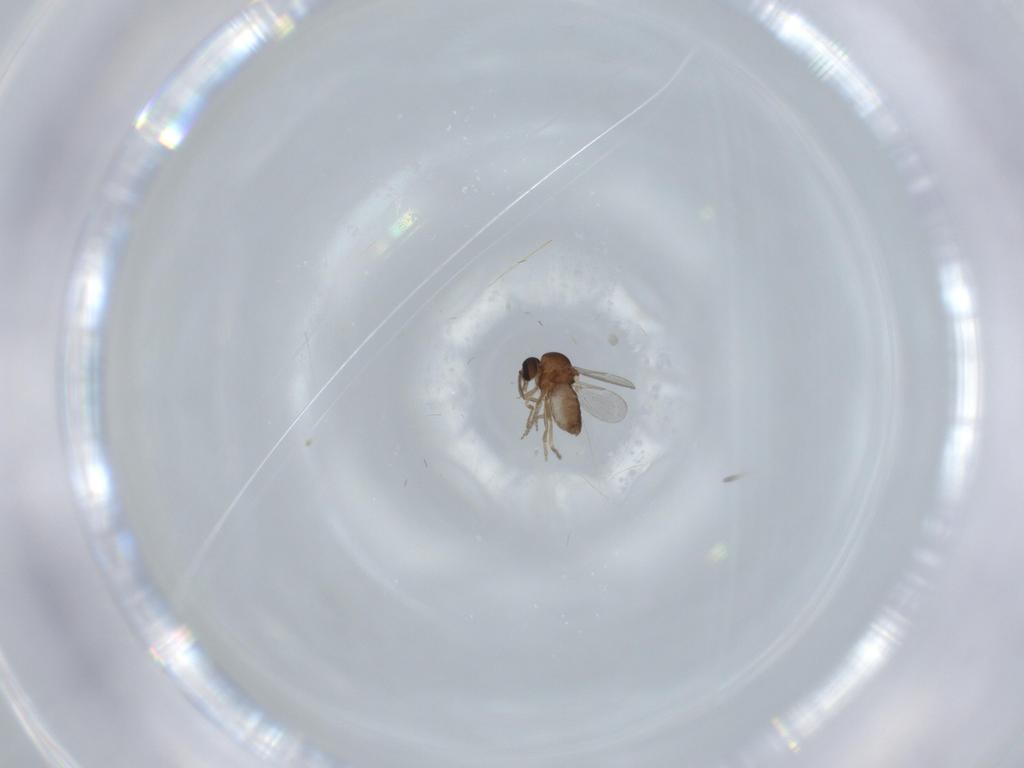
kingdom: Animalia
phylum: Arthropoda
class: Insecta
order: Diptera
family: Ceratopogonidae
